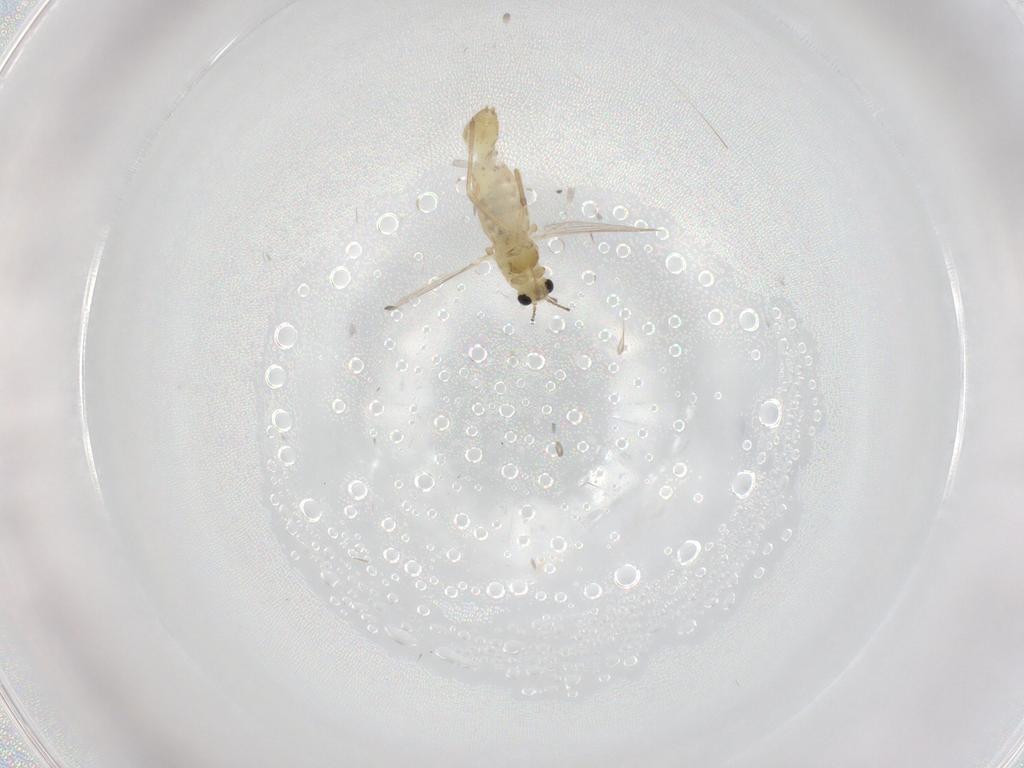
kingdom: Animalia
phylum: Arthropoda
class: Insecta
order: Diptera
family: Chironomidae
